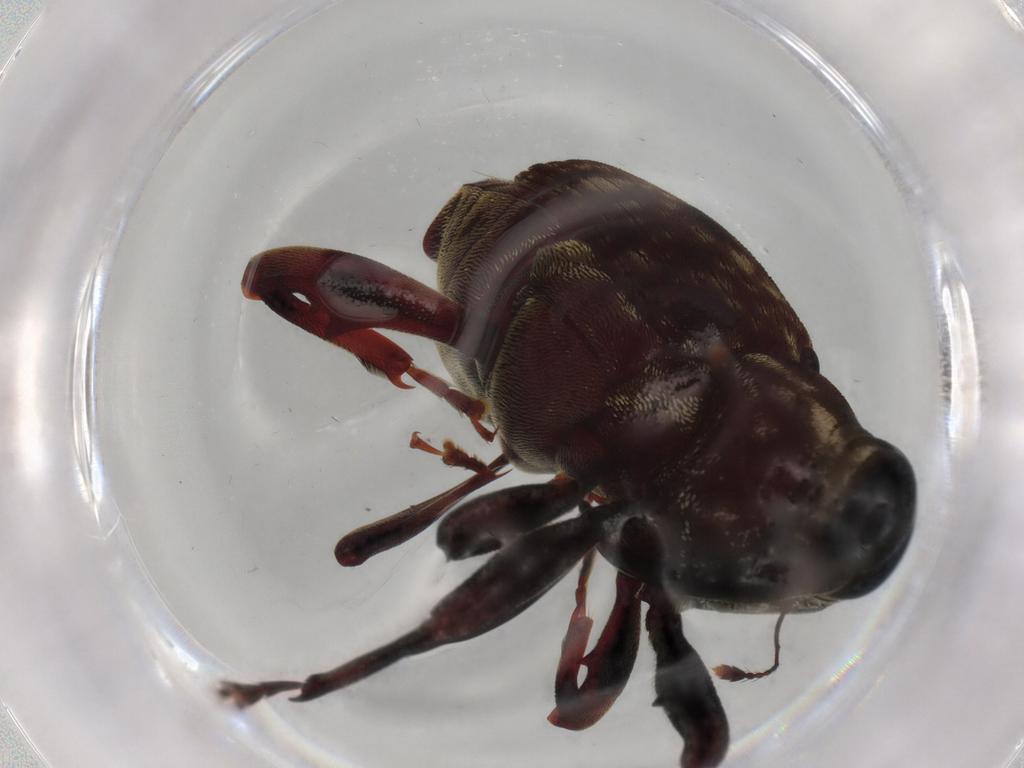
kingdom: Animalia
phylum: Arthropoda
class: Insecta
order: Coleoptera
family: Curculionidae
